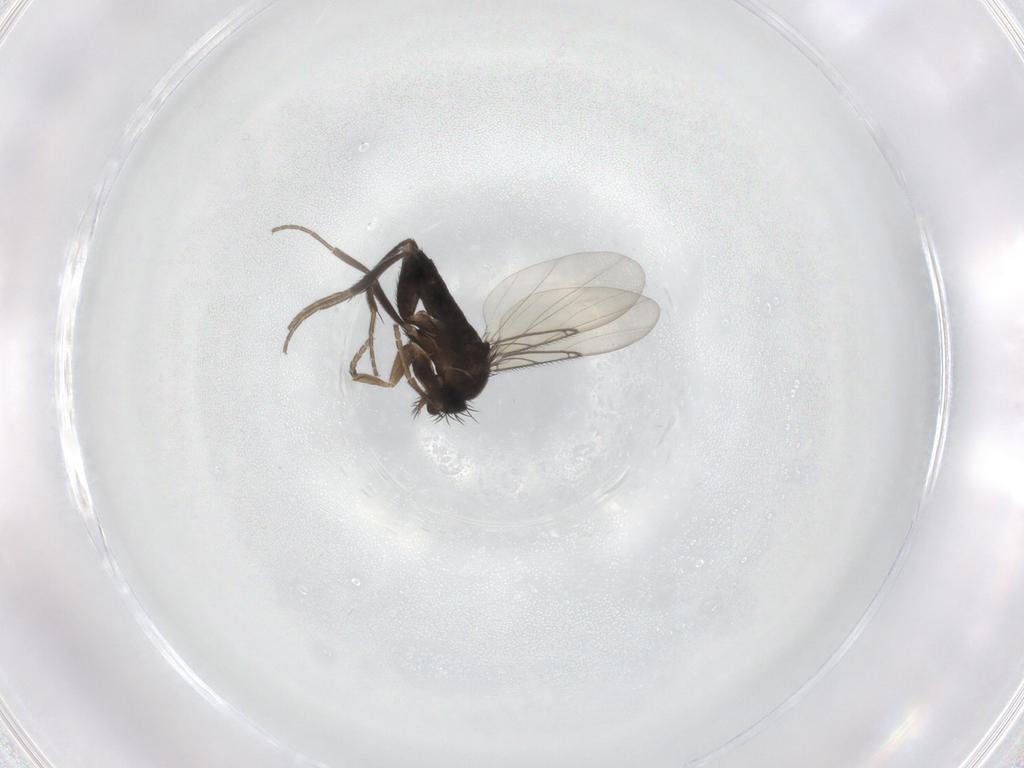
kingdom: Animalia
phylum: Arthropoda
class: Insecta
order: Diptera
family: Phoridae
